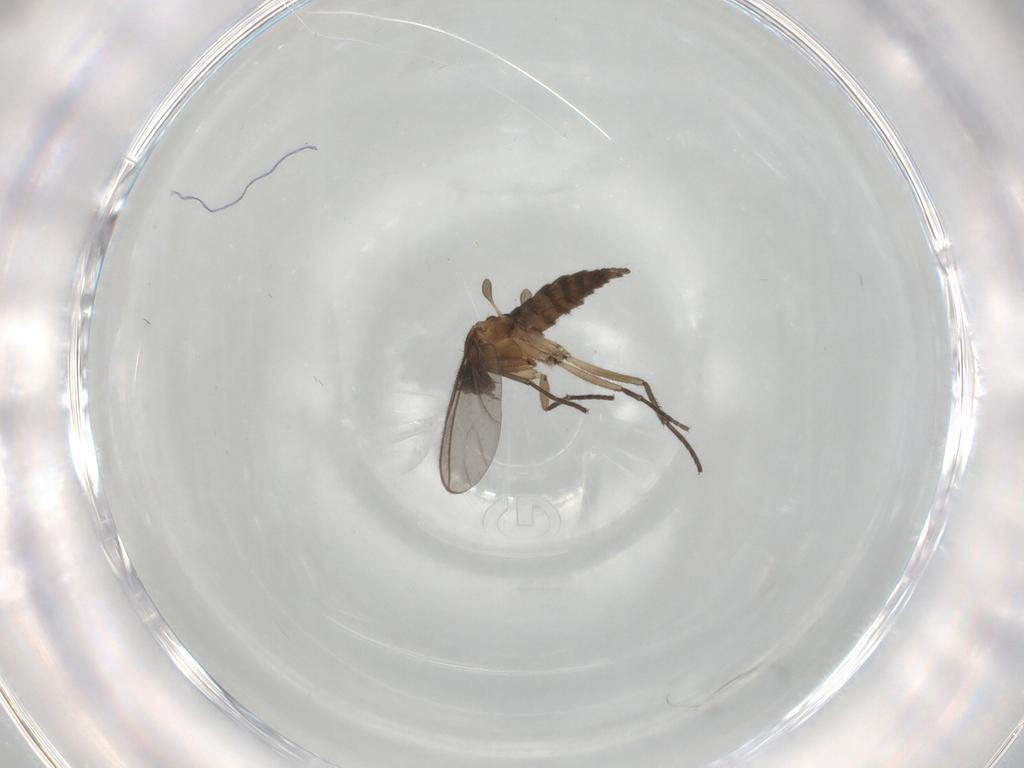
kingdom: Animalia
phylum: Arthropoda
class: Insecta
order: Diptera
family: Sciaridae
